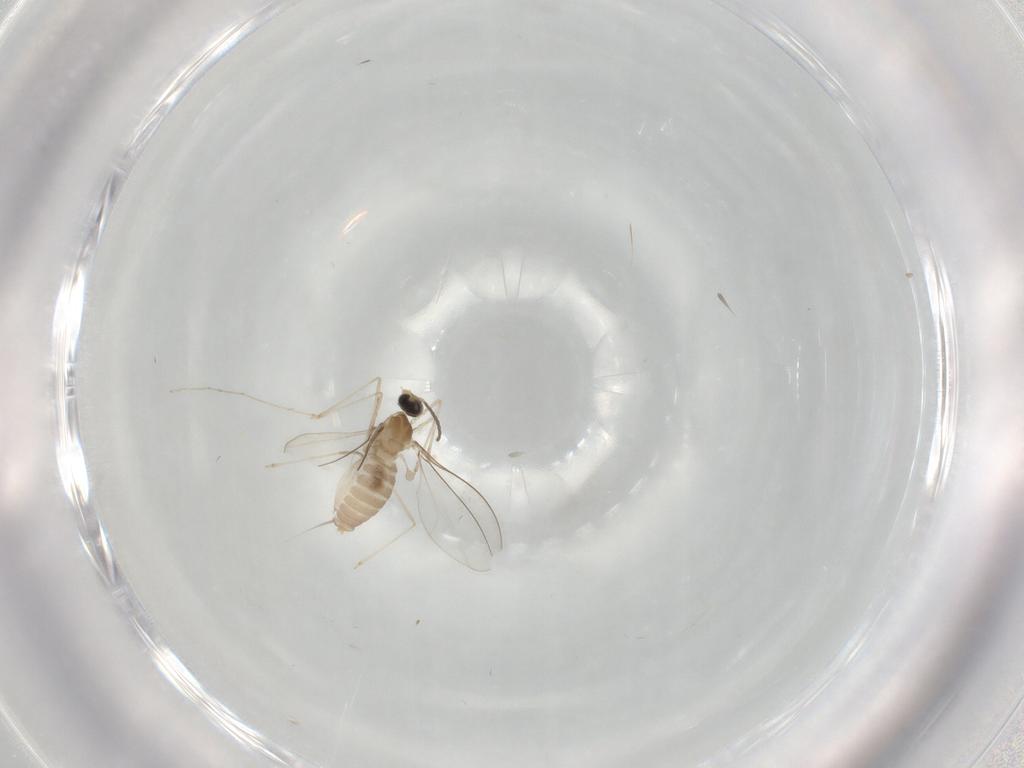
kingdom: Animalia
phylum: Arthropoda
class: Insecta
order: Diptera
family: Cecidomyiidae
